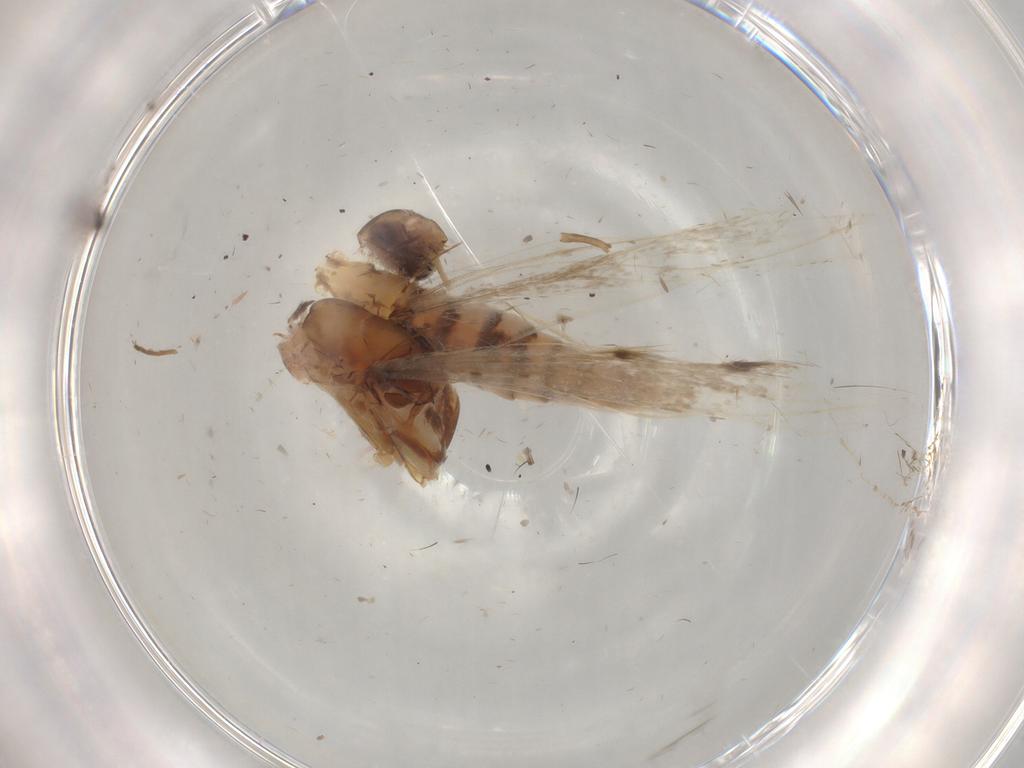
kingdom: Animalia
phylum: Arthropoda
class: Insecta
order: Lepidoptera
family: Gelechiidae
